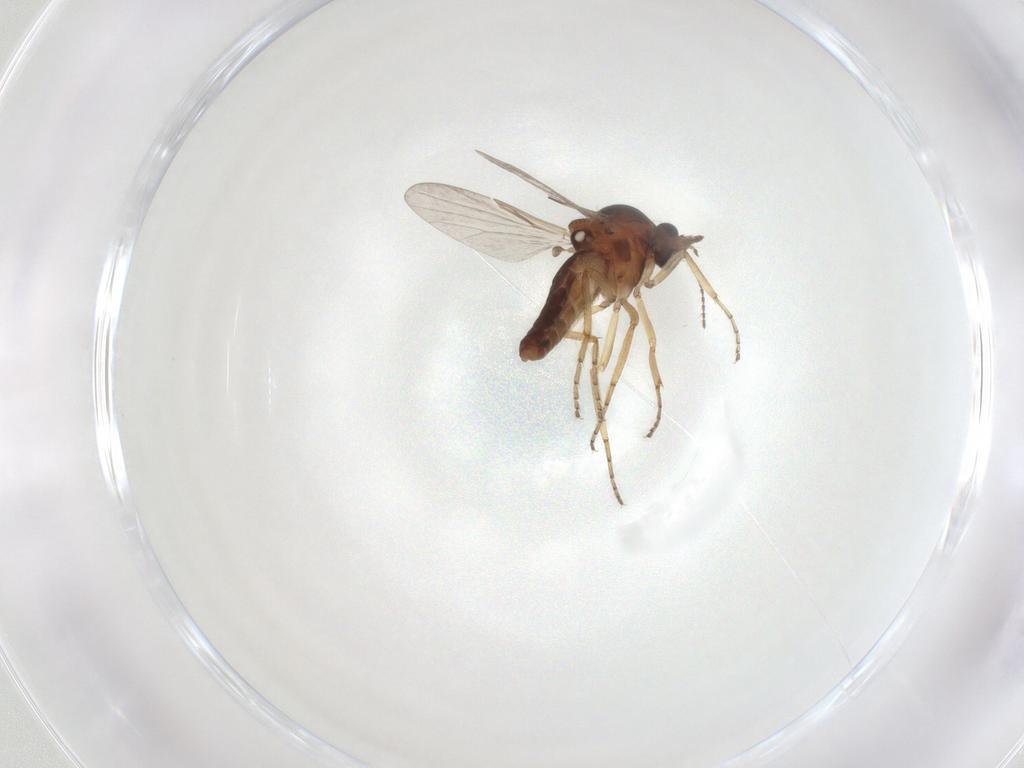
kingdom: Animalia
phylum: Arthropoda
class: Insecta
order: Diptera
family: Ceratopogonidae
